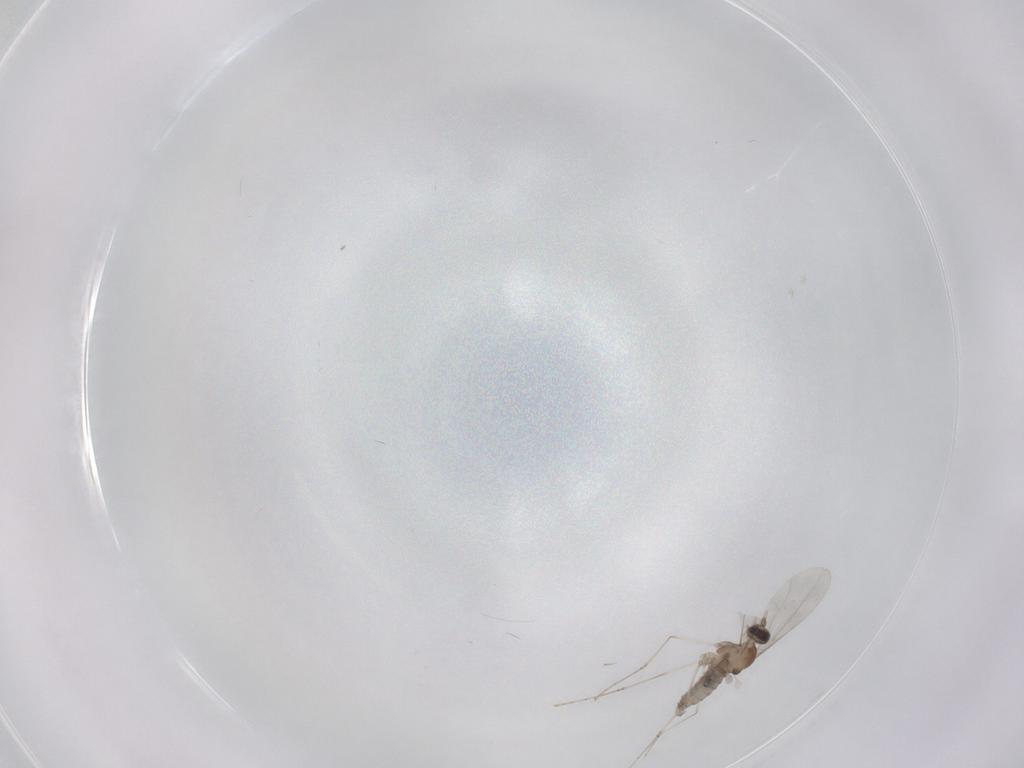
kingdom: Animalia
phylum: Arthropoda
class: Insecta
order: Diptera
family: Cecidomyiidae
